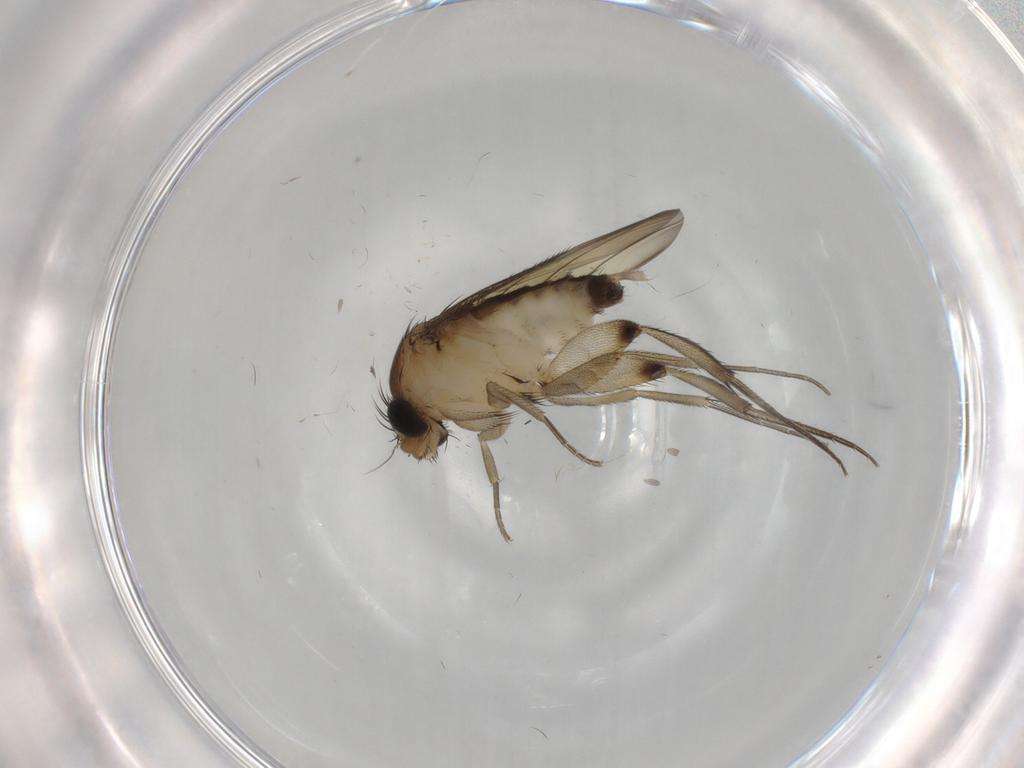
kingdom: Animalia
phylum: Arthropoda
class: Insecta
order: Diptera
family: Phoridae
